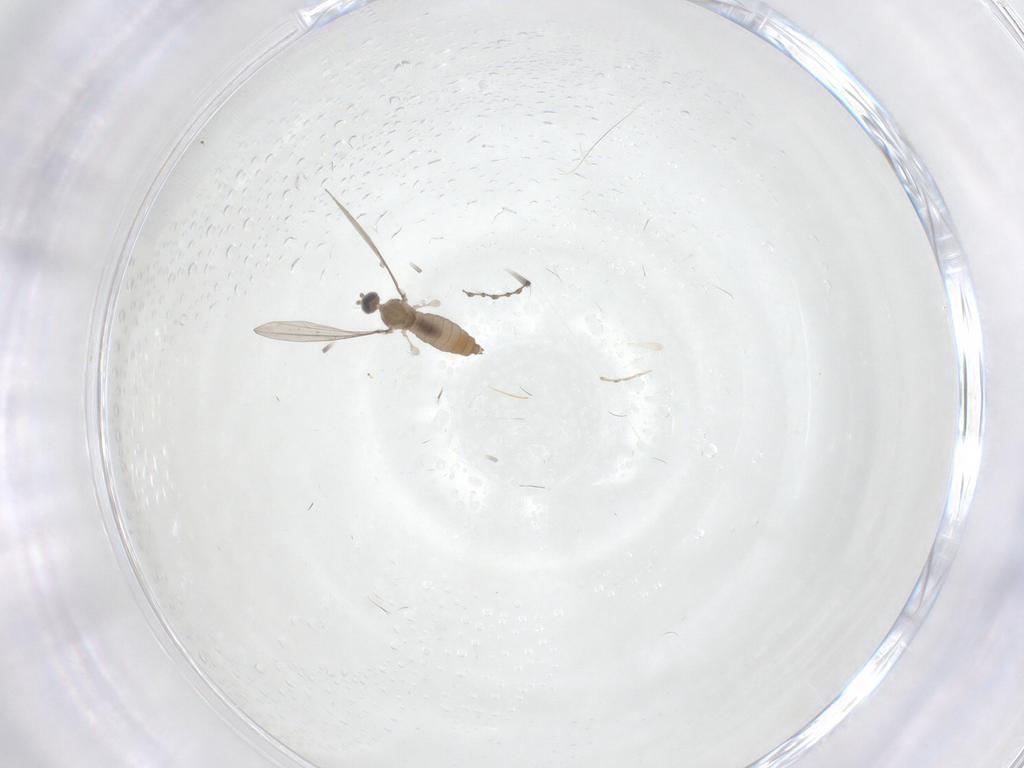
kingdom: Animalia
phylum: Arthropoda
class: Insecta
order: Diptera
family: Cecidomyiidae
